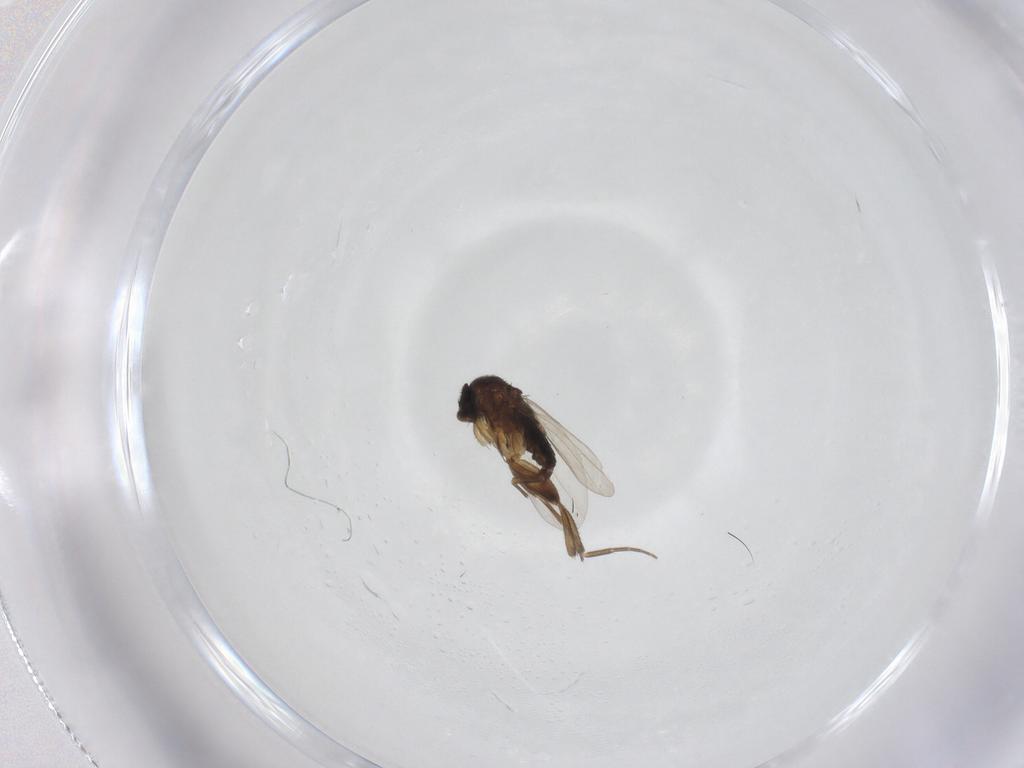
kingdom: Animalia
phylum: Arthropoda
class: Insecta
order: Diptera
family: Phoridae
